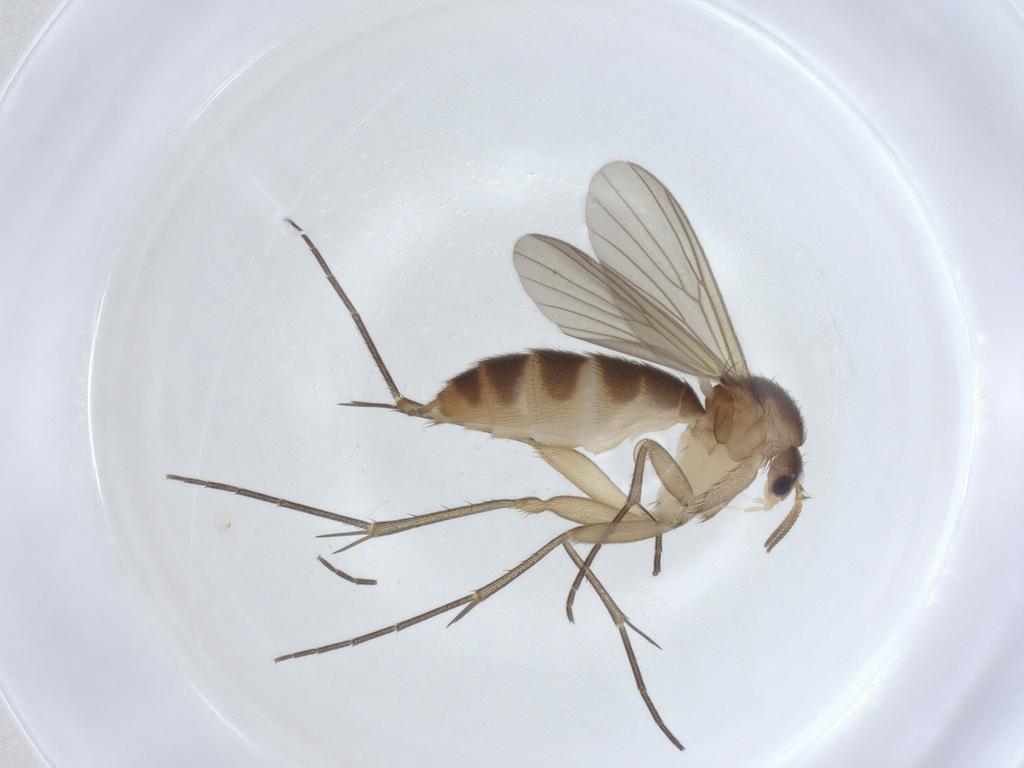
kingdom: Animalia
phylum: Arthropoda
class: Insecta
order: Diptera
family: Mycetophilidae
